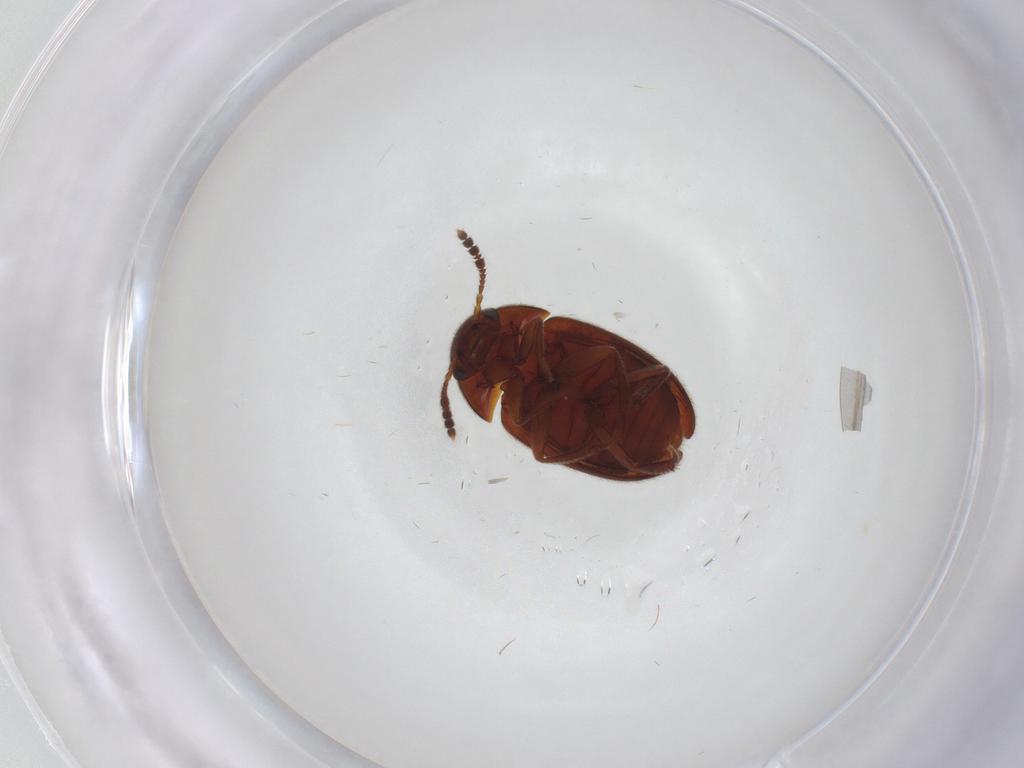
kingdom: Animalia
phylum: Arthropoda
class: Insecta
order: Coleoptera
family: Leiodidae
